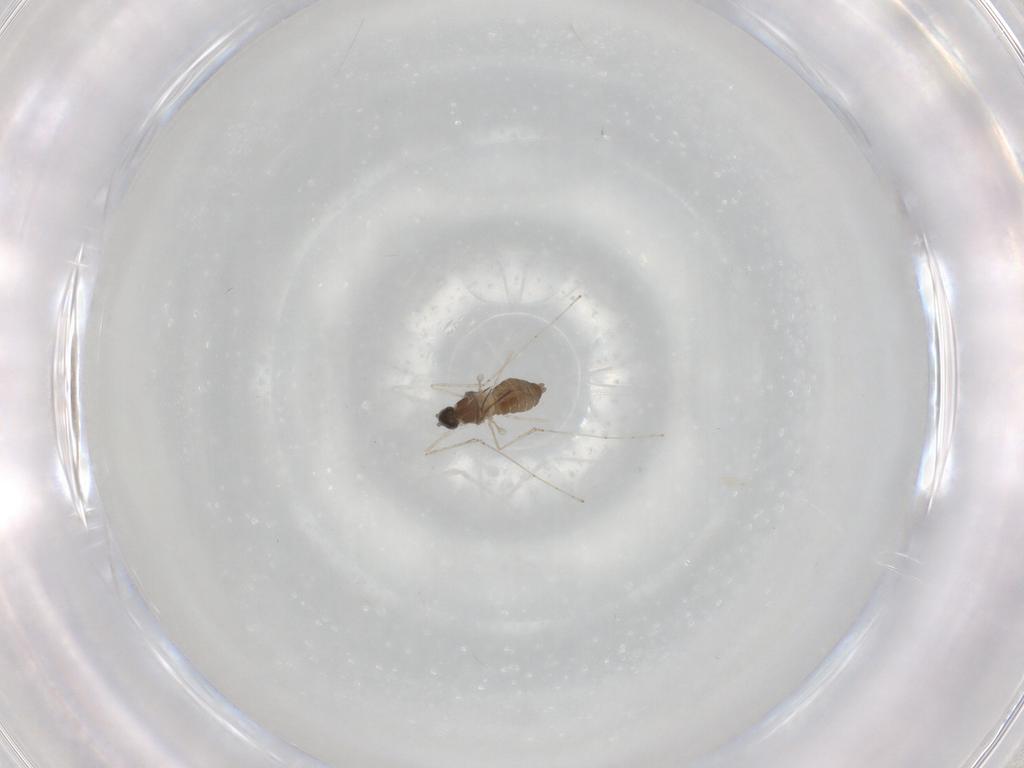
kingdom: Animalia
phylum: Arthropoda
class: Insecta
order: Diptera
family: Cecidomyiidae
